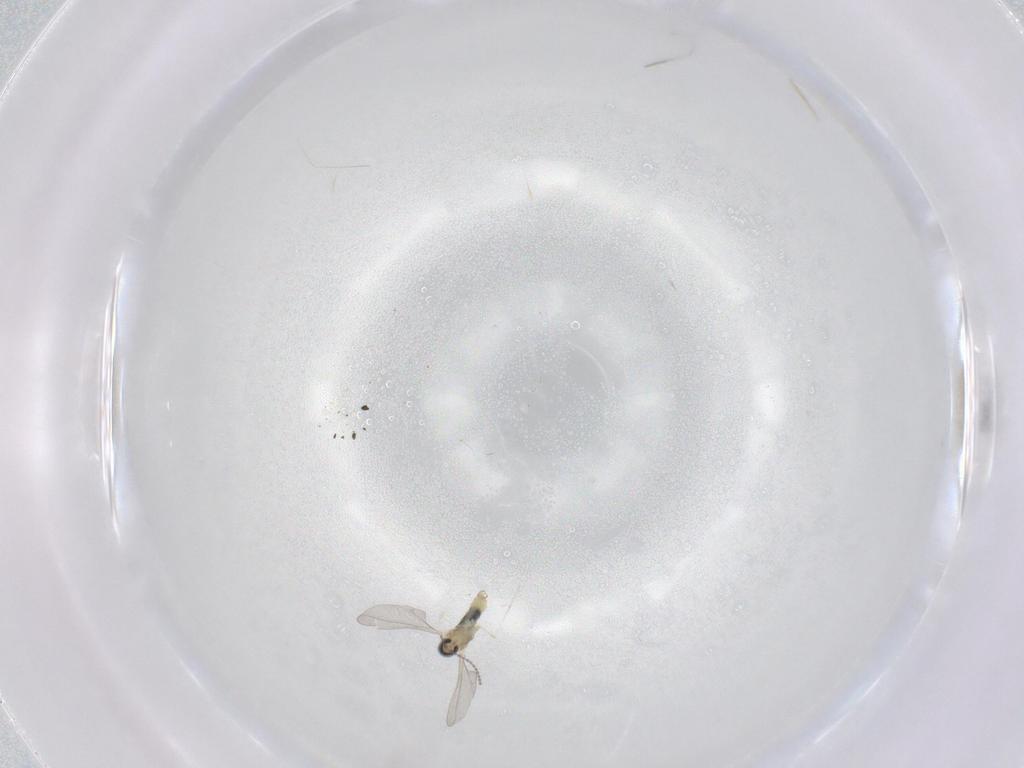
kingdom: Animalia
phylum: Arthropoda
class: Insecta
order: Diptera
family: Cecidomyiidae
